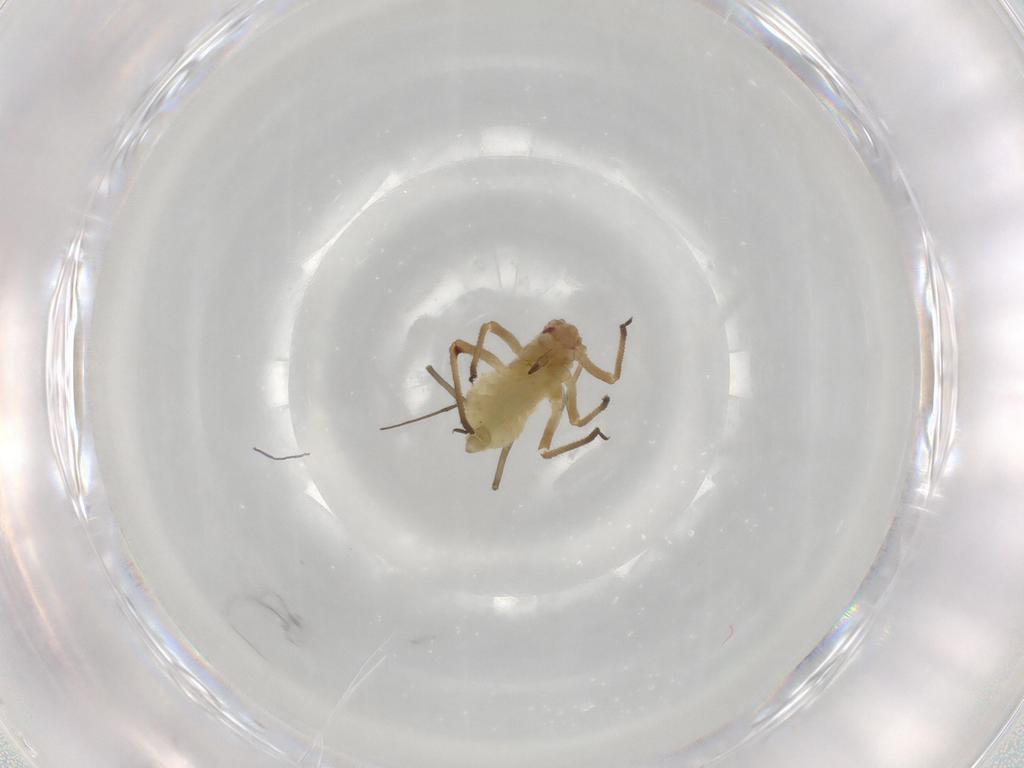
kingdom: Animalia
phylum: Arthropoda
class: Insecta
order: Hemiptera
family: Aphididae
